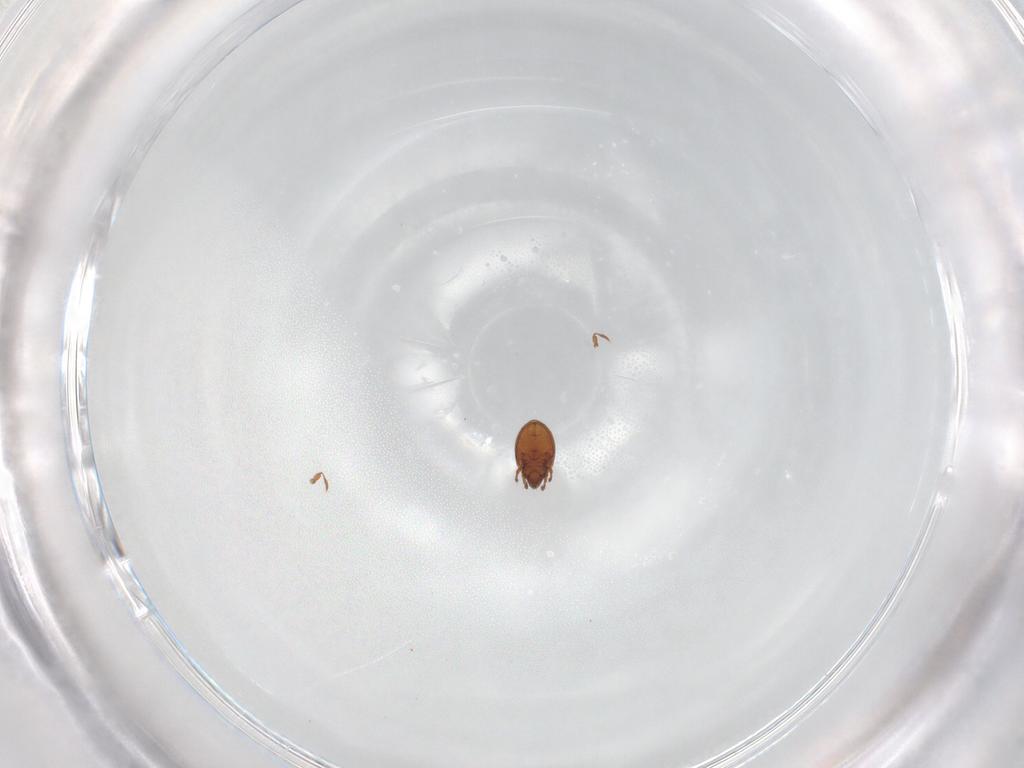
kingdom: Animalia
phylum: Arthropoda
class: Arachnida
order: Sarcoptiformes
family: Liacaridae
